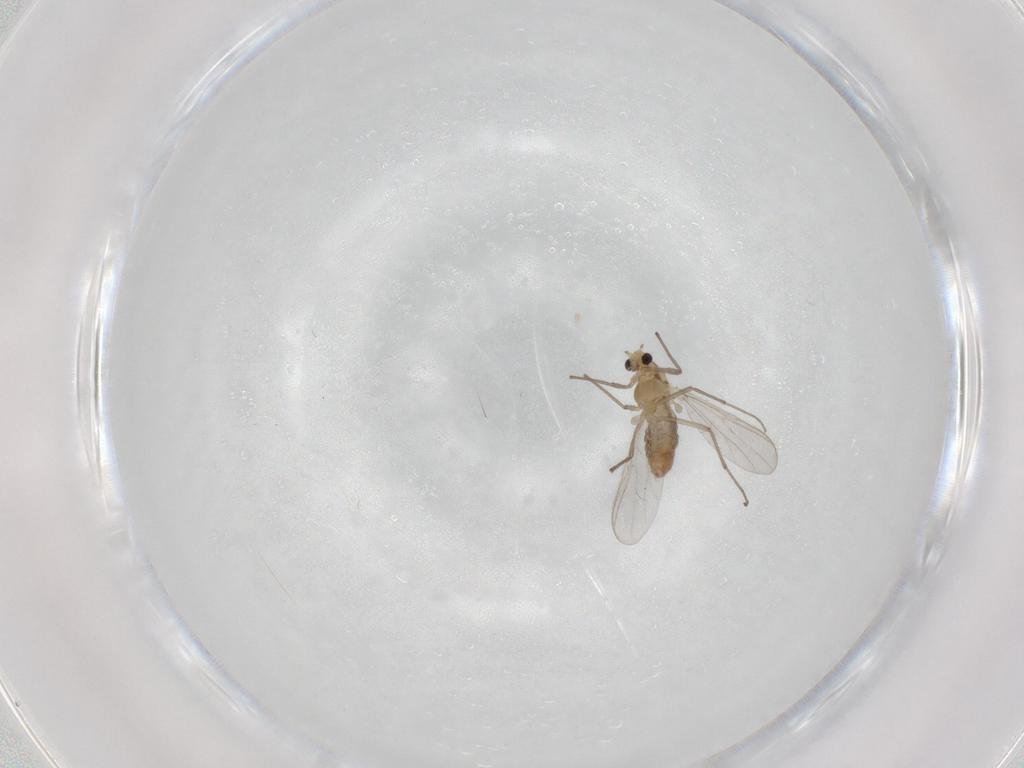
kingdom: Animalia
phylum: Arthropoda
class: Insecta
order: Diptera
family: Chironomidae
